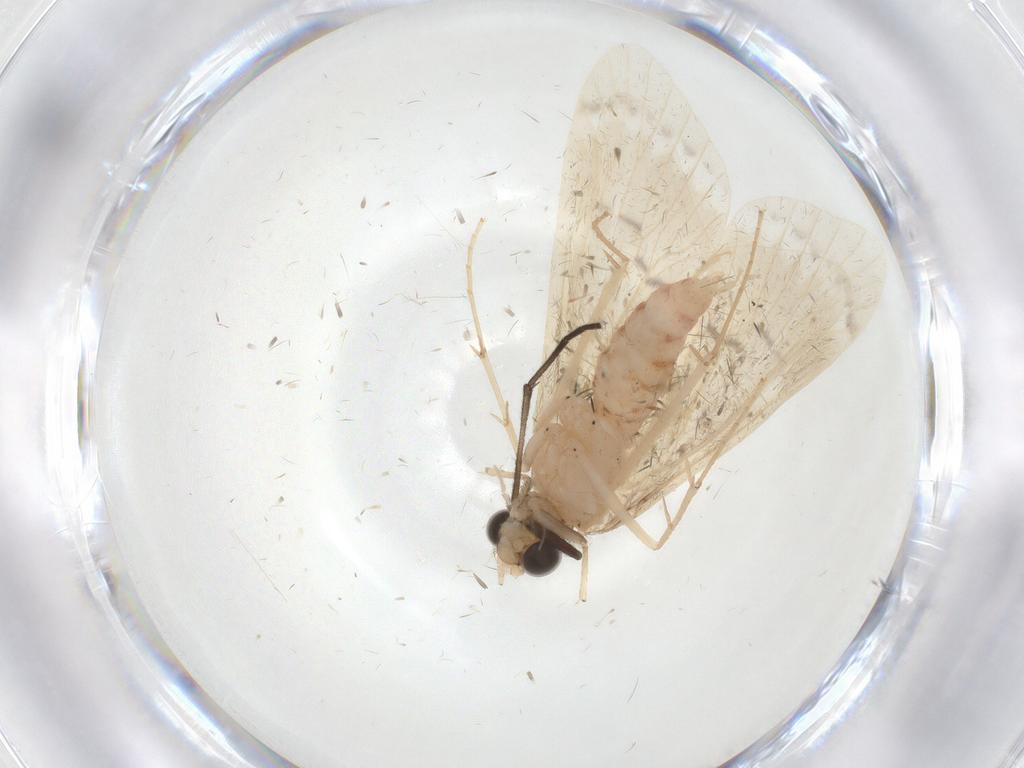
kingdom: Animalia
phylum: Arthropoda
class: Insecta
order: Trichoptera
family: Hydropsychidae
